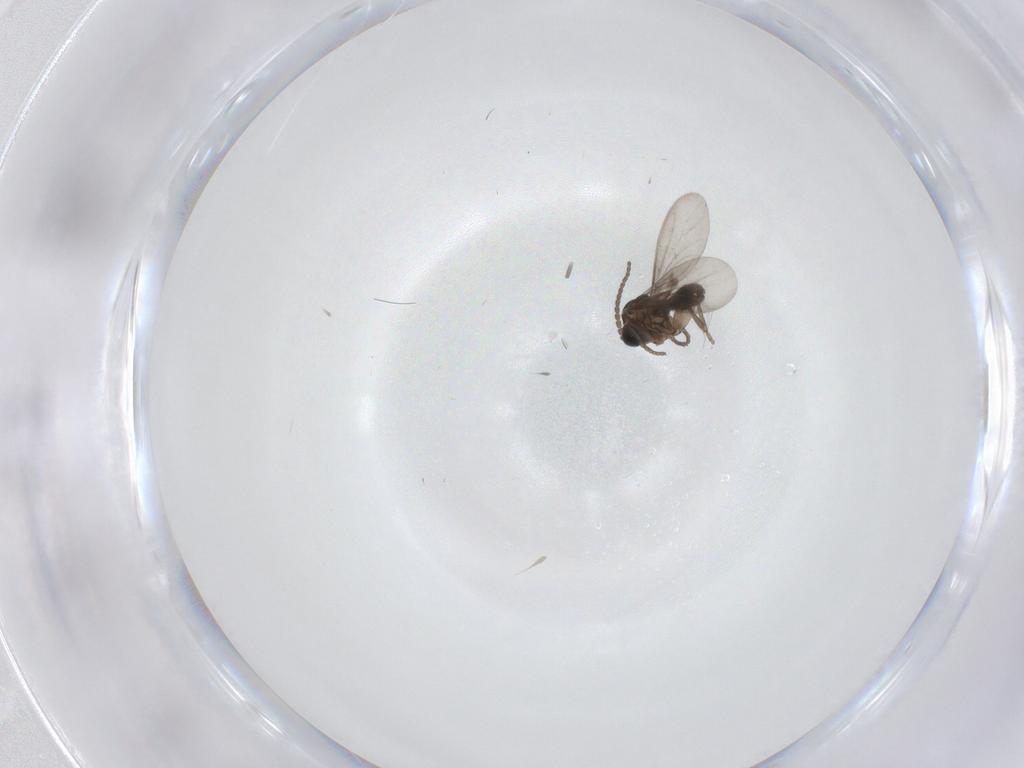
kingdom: Animalia
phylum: Arthropoda
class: Insecta
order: Diptera
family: Sciaridae
